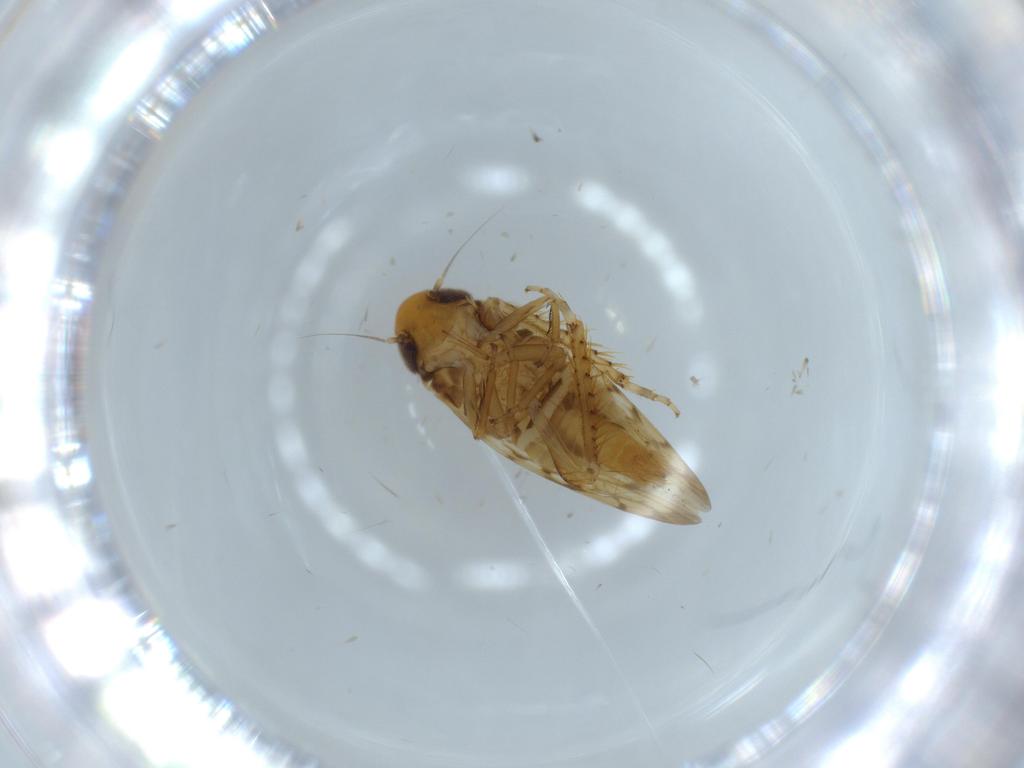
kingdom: Animalia
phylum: Arthropoda
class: Insecta
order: Hemiptera
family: Cicadellidae
